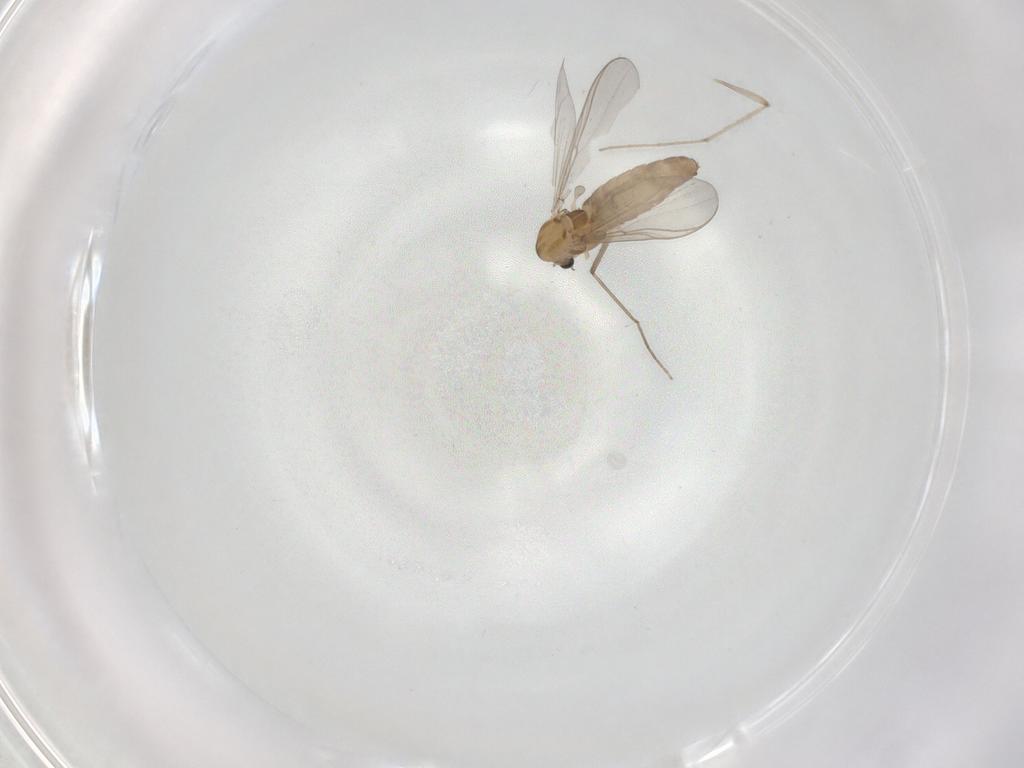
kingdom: Animalia
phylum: Arthropoda
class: Insecta
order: Diptera
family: Chironomidae
